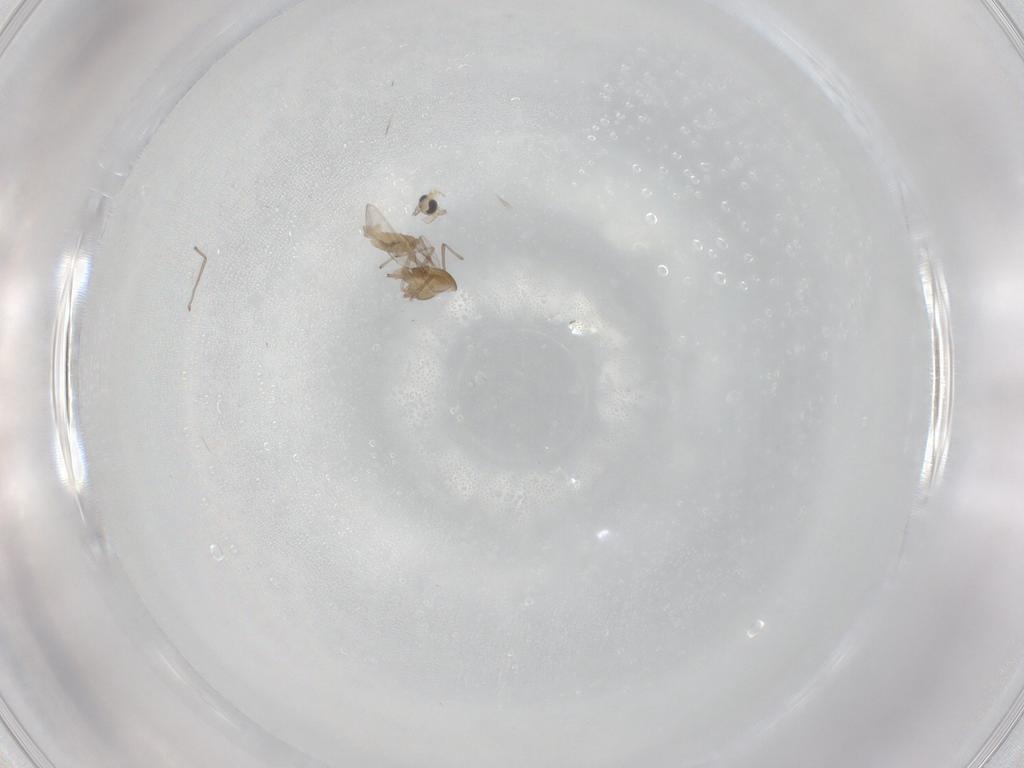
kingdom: Animalia
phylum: Arthropoda
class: Insecta
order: Diptera
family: Chironomidae
